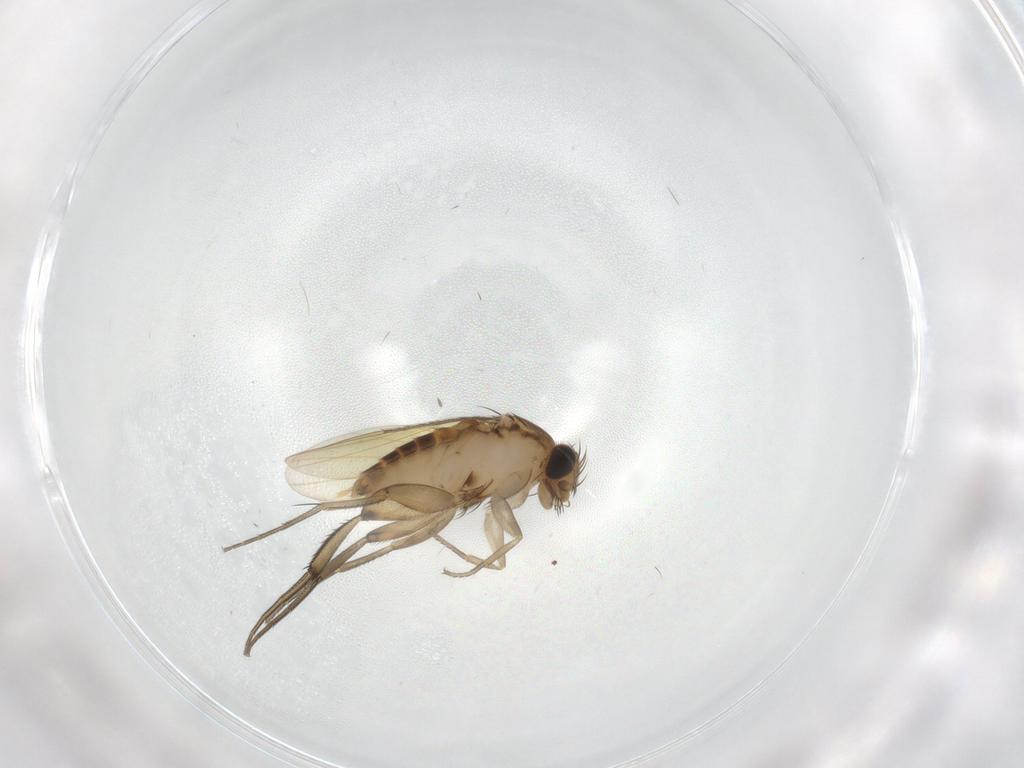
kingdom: Animalia
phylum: Arthropoda
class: Insecta
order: Diptera
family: Phoridae
